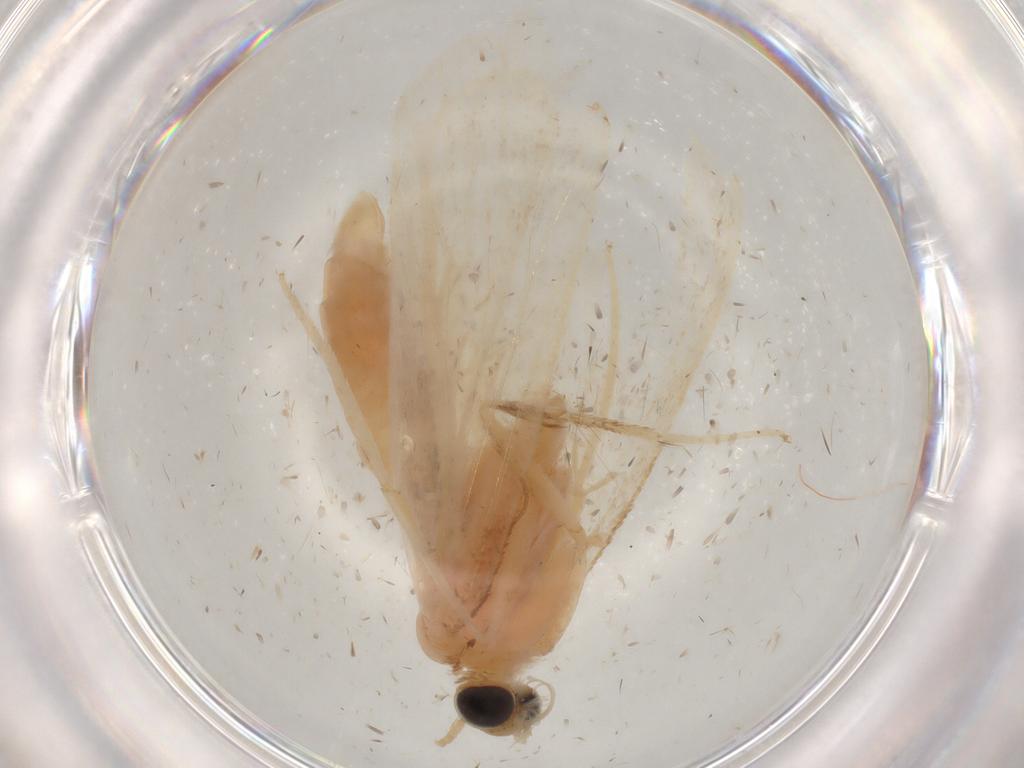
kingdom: Animalia
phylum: Arthropoda
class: Insecta
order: Lepidoptera
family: Crambidae
